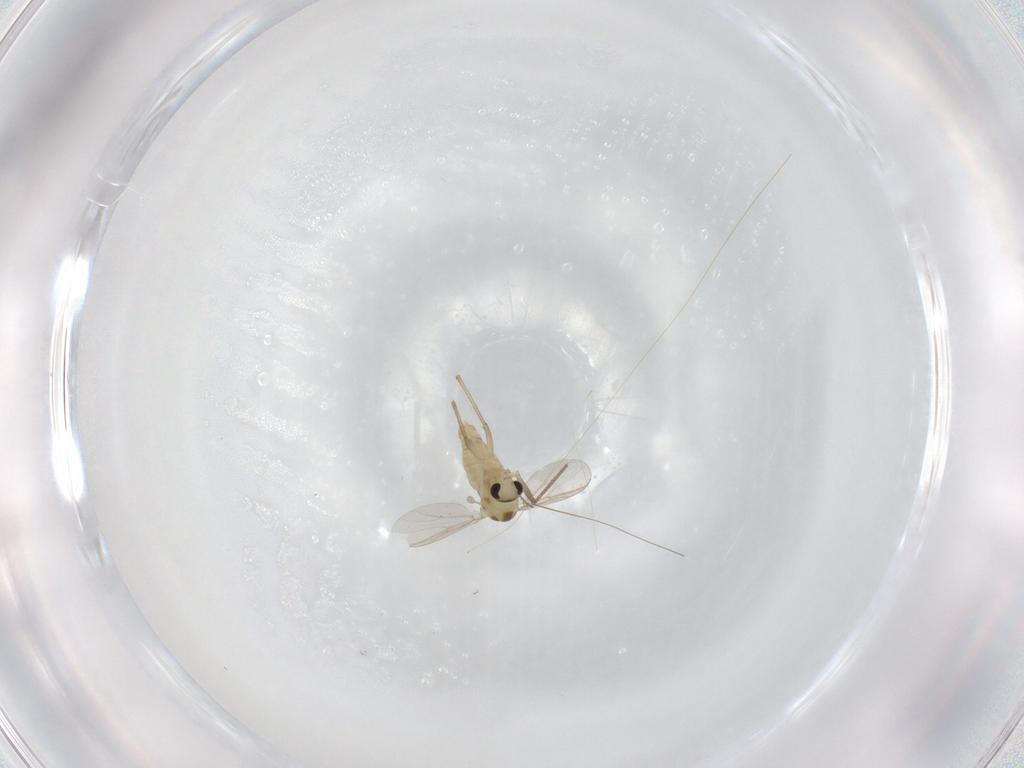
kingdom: Animalia
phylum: Arthropoda
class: Insecta
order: Diptera
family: Chironomidae
